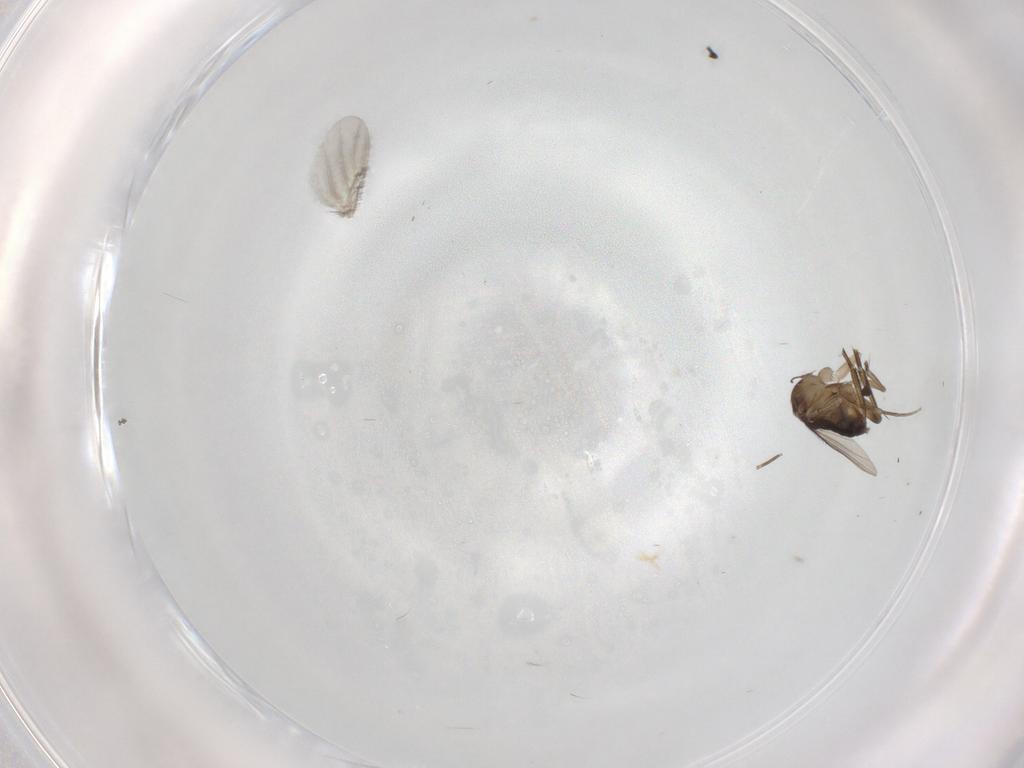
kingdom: Animalia
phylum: Arthropoda
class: Insecta
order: Diptera
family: Cecidomyiidae
